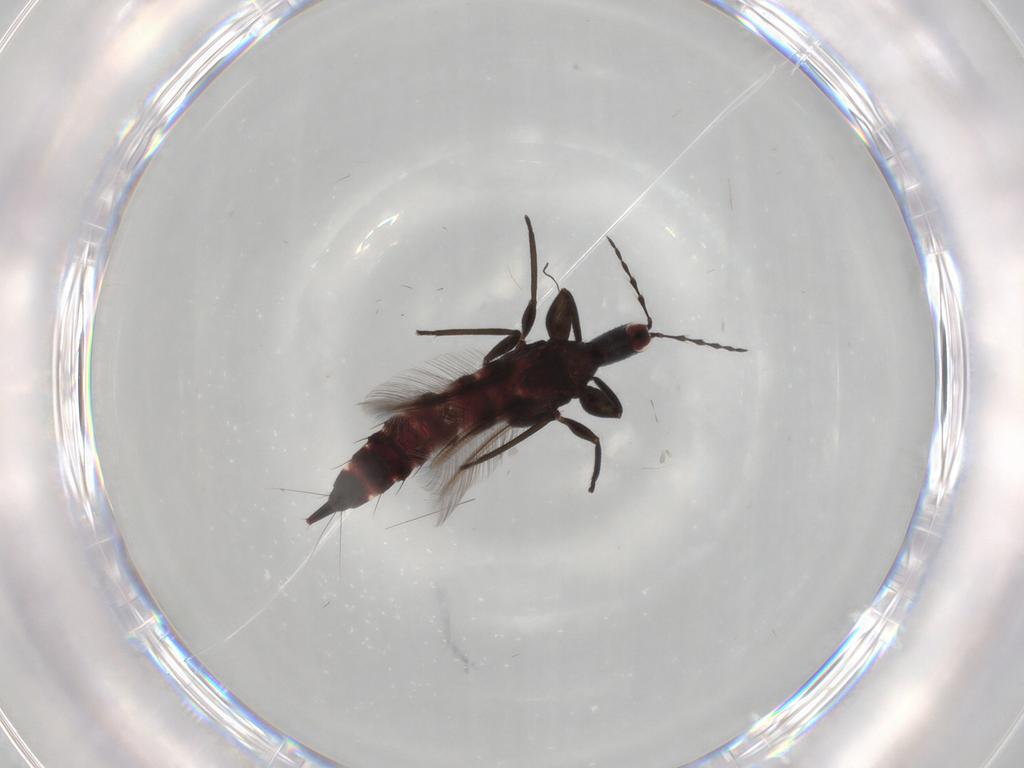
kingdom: Animalia
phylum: Arthropoda
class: Insecta
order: Thysanoptera
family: Phlaeothripidae
